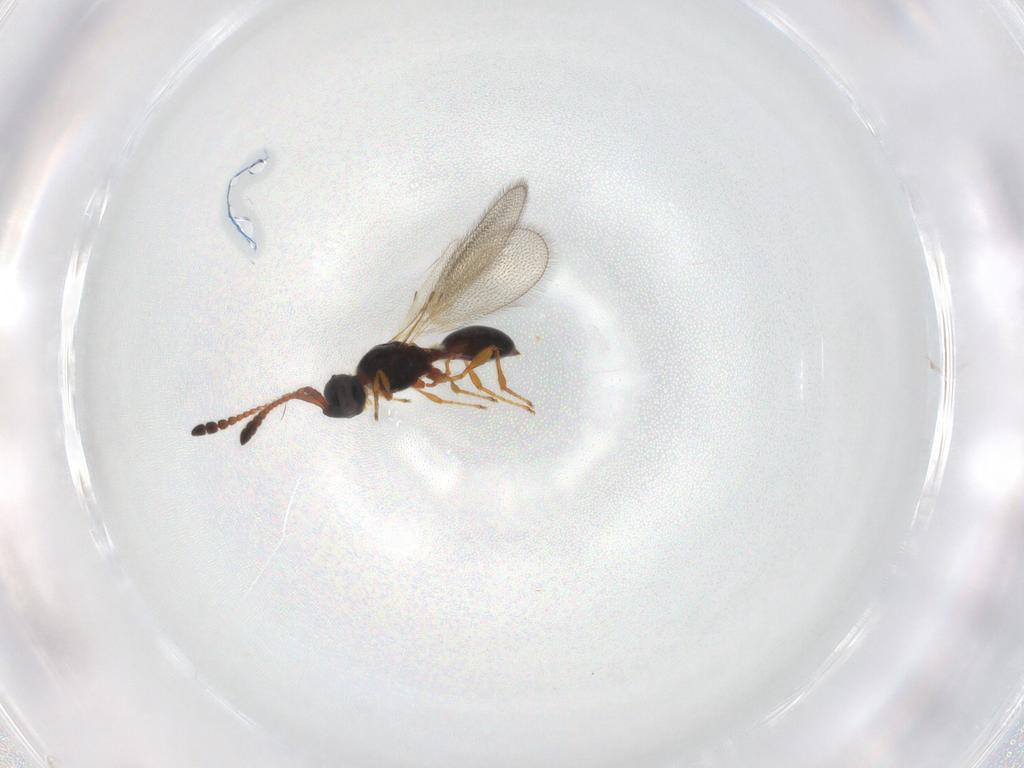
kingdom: Animalia
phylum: Arthropoda
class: Insecta
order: Hymenoptera
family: Diapriidae
